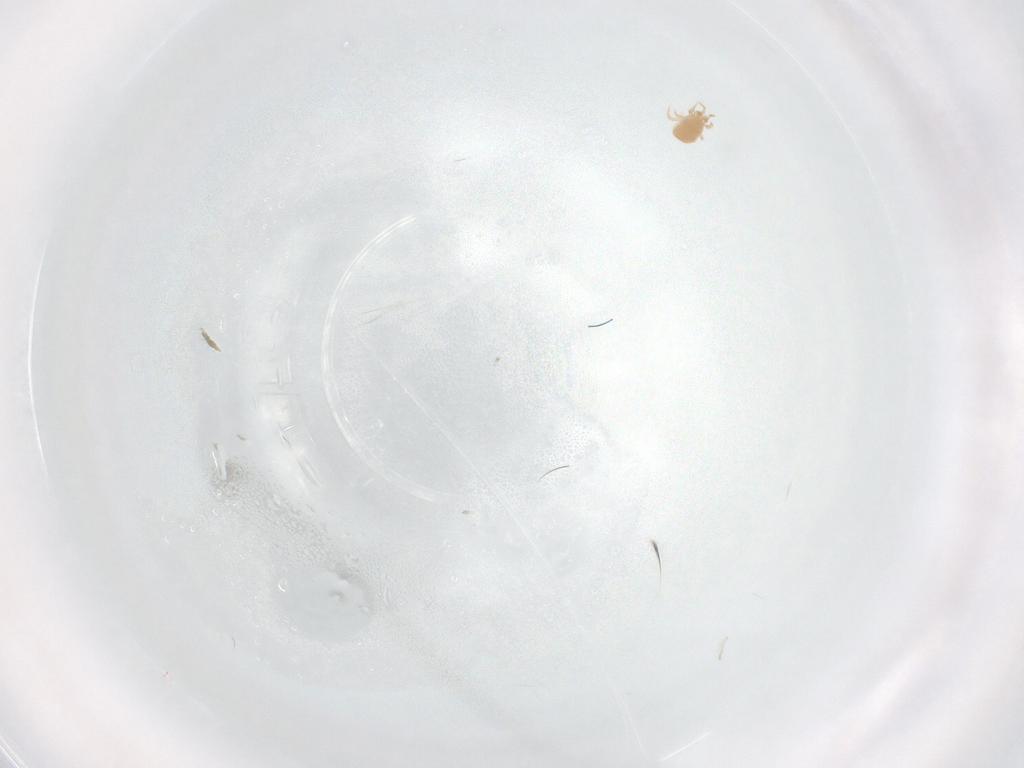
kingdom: Animalia
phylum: Arthropoda
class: Arachnida
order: Mesostigmata
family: Ascidae
